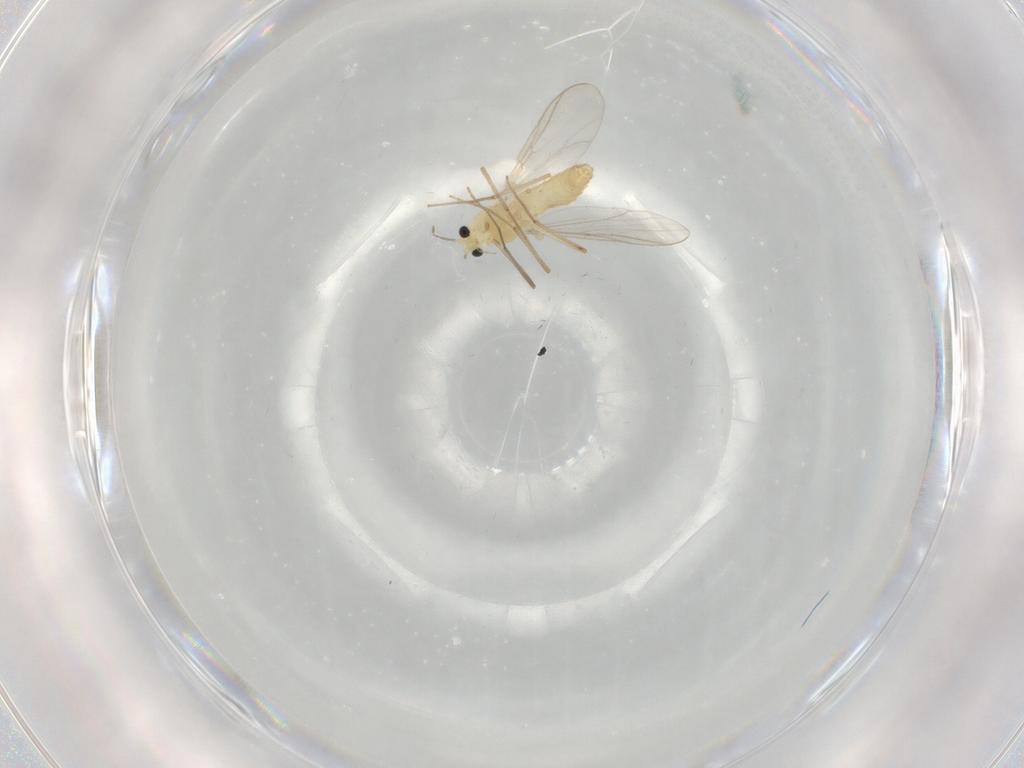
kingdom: Animalia
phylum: Arthropoda
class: Insecta
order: Diptera
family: Chironomidae
